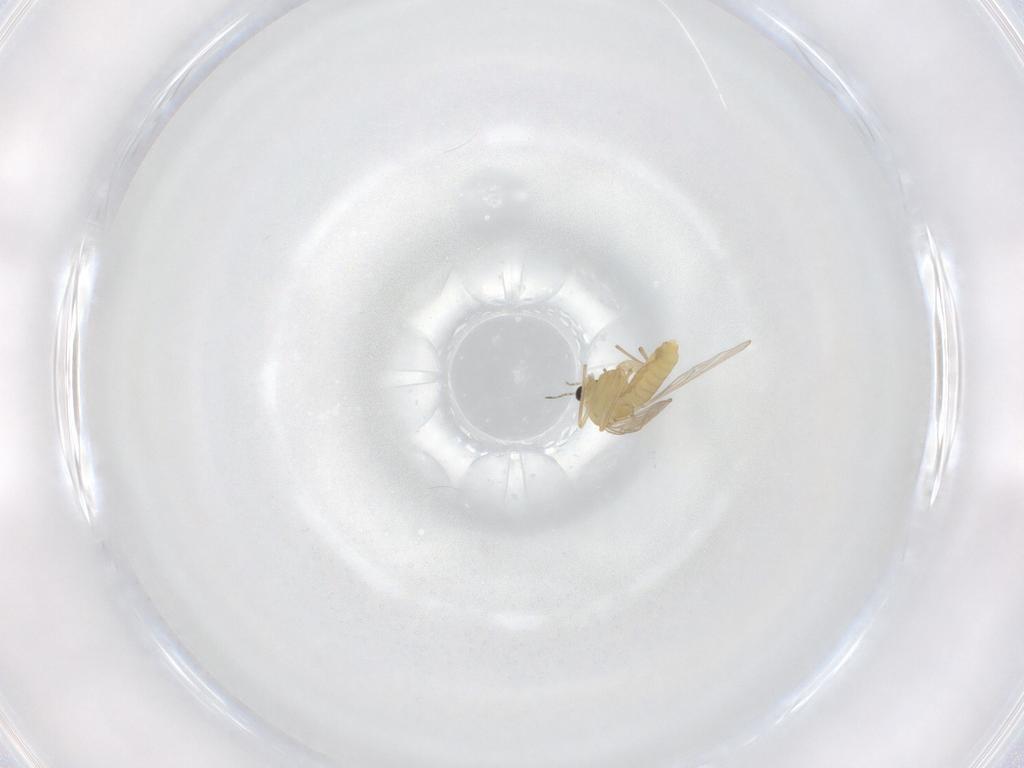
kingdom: Animalia
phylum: Arthropoda
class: Insecta
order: Diptera
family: Chironomidae
